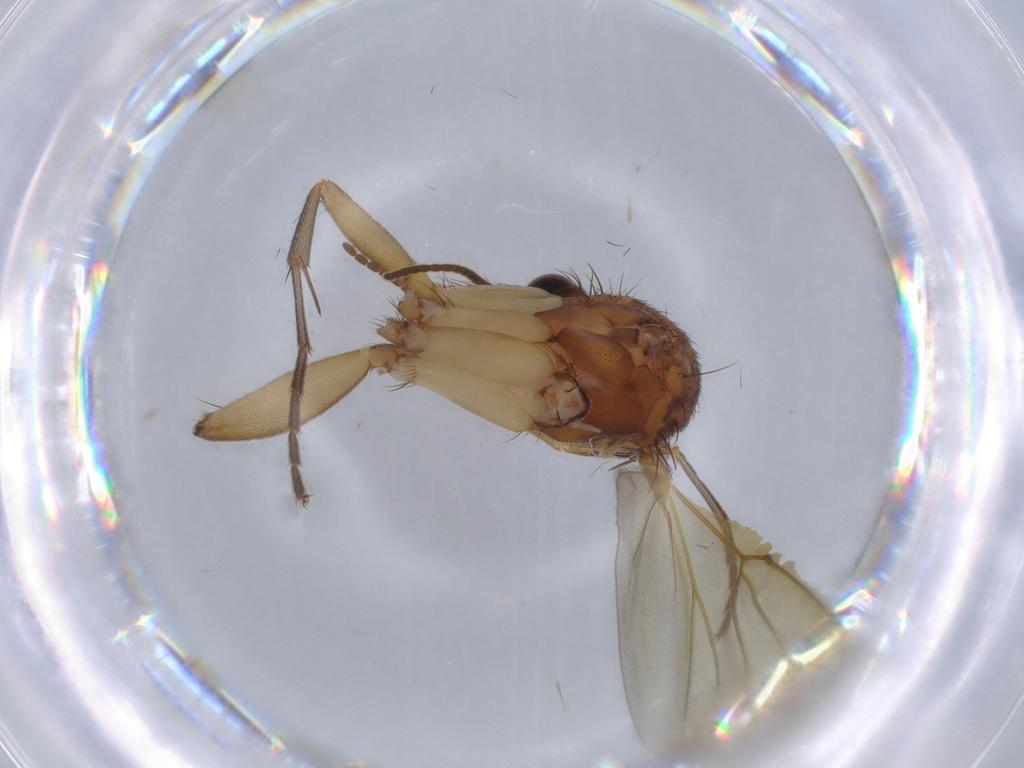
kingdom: Animalia
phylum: Arthropoda
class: Insecta
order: Diptera
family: Mycetophilidae
